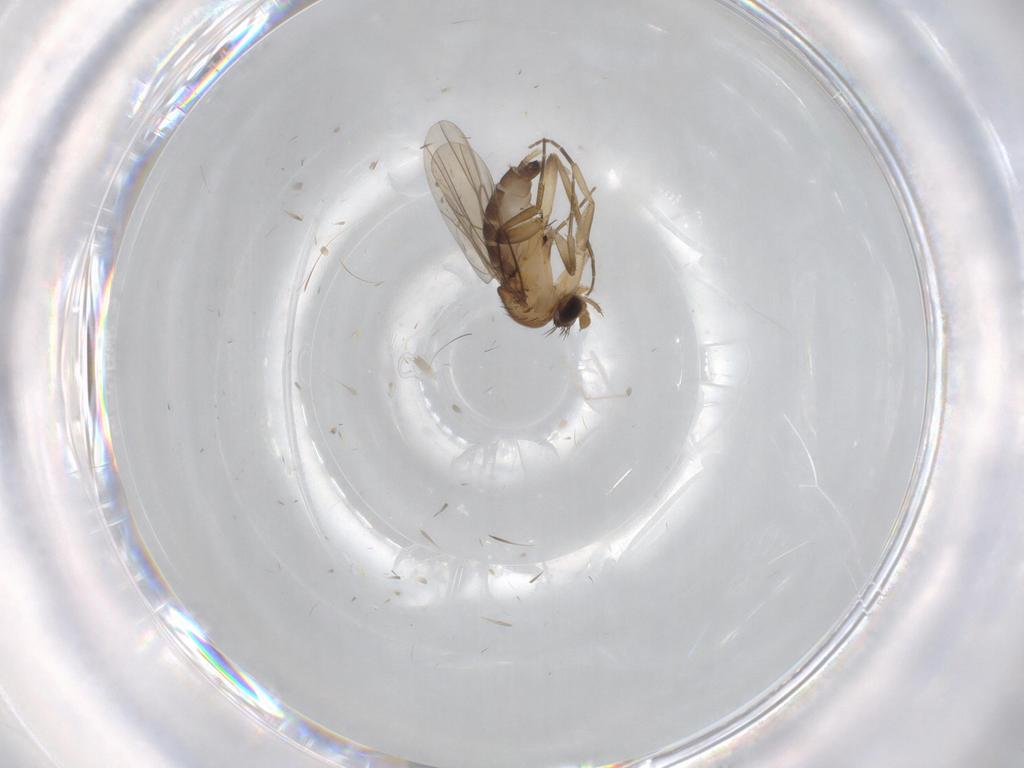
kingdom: Animalia
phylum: Arthropoda
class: Insecta
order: Diptera
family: Phoridae
